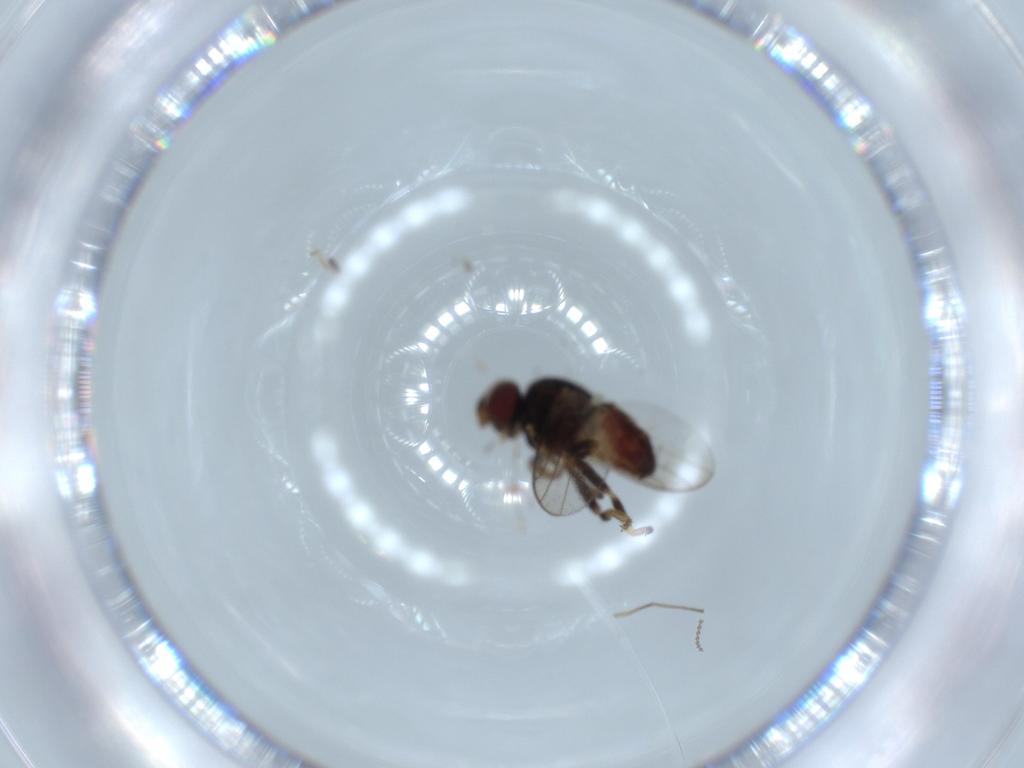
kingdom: Animalia
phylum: Arthropoda
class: Insecta
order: Diptera
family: Chloropidae
